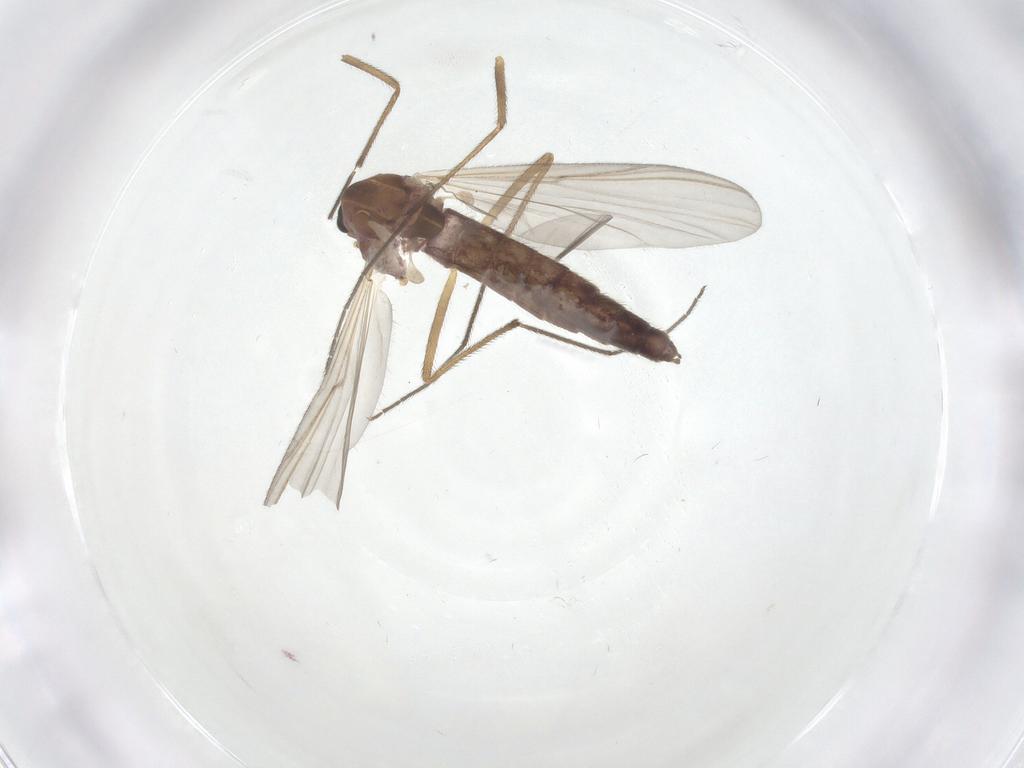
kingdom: Animalia
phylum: Arthropoda
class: Insecta
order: Diptera
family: Chironomidae
